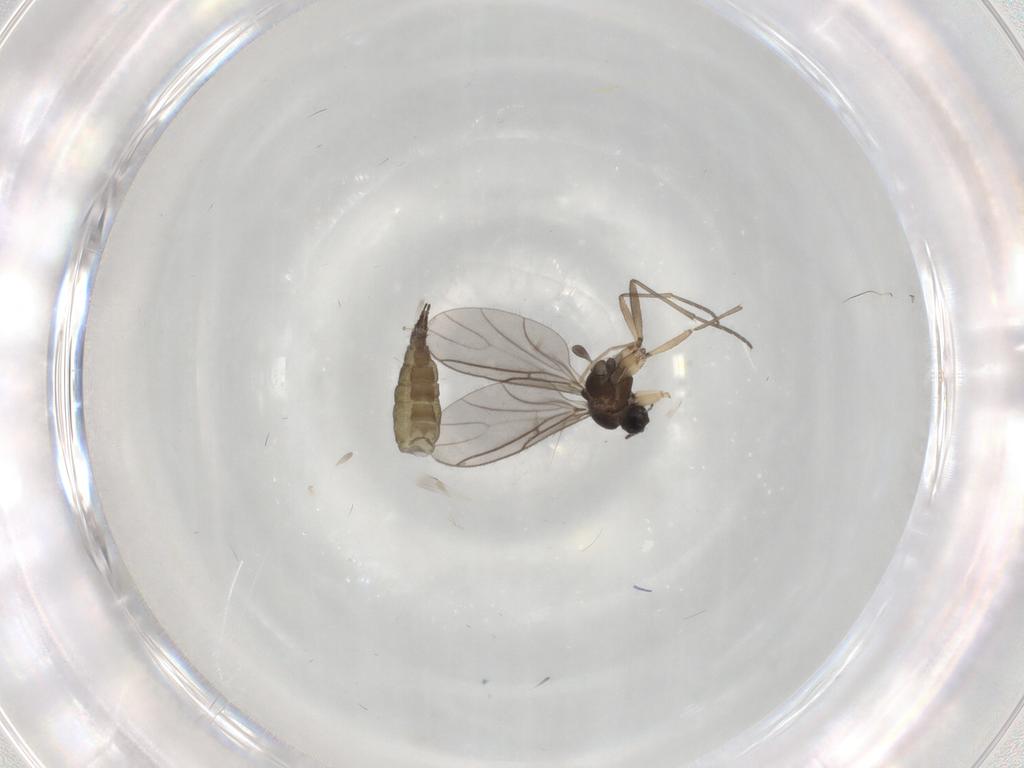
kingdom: Animalia
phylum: Arthropoda
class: Insecta
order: Diptera
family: Sciaridae
